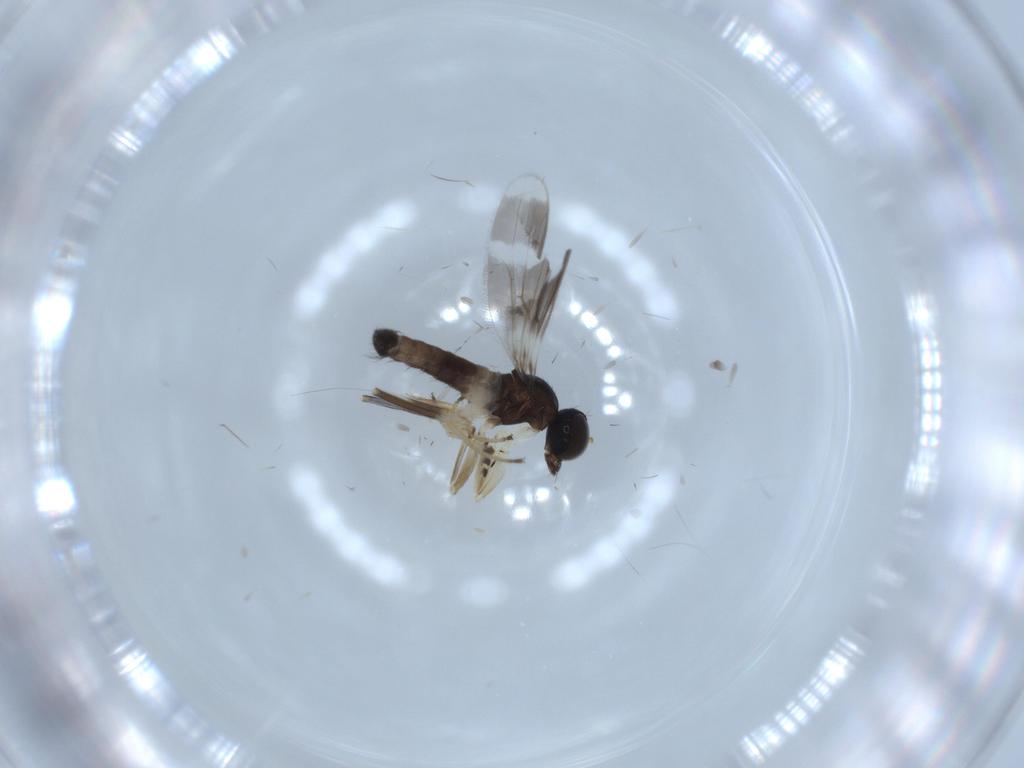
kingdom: Animalia
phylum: Arthropoda
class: Insecta
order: Diptera
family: Hybotidae
